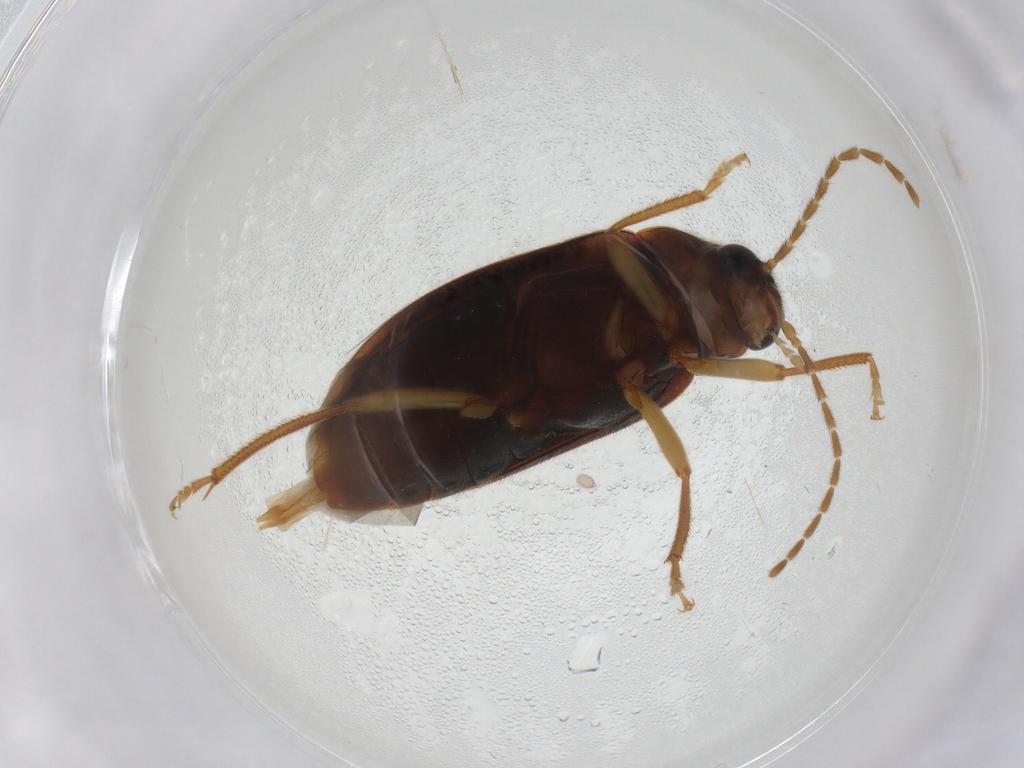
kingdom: Animalia
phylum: Arthropoda
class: Insecta
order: Coleoptera
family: Ptilodactylidae
